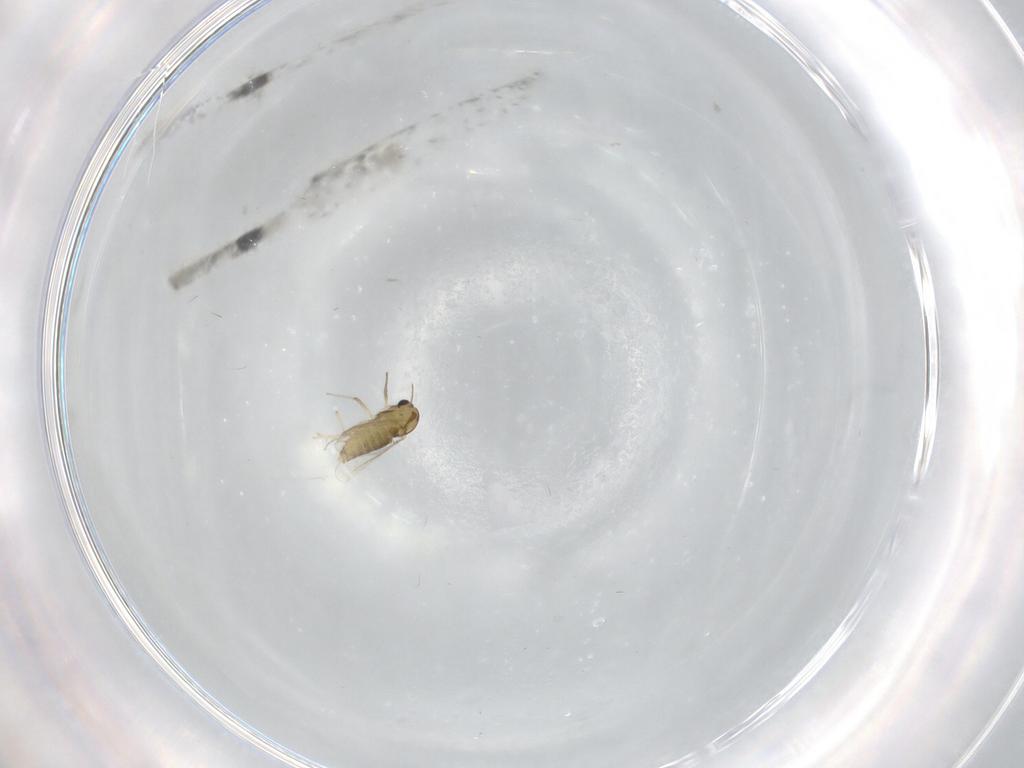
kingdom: Animalia
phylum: Arthropoda
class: Insecta
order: Diptera
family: Chironomidae
